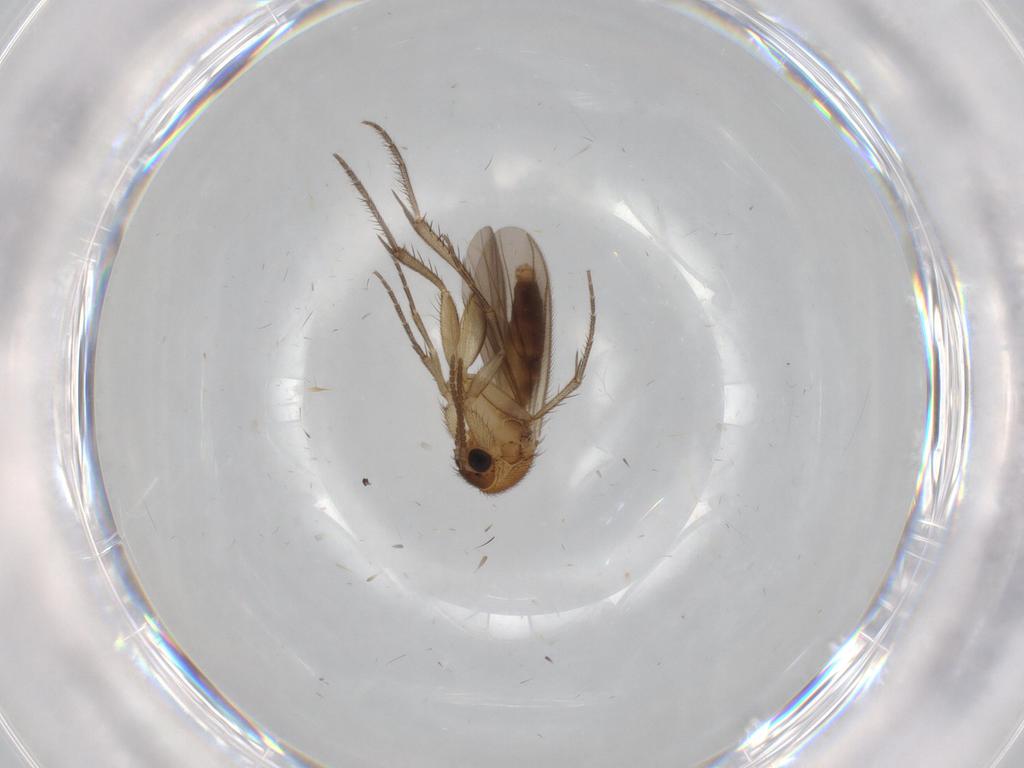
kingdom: Animalia
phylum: Arthropoda
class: Insecta
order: Diptera
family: Mycetophilidae
